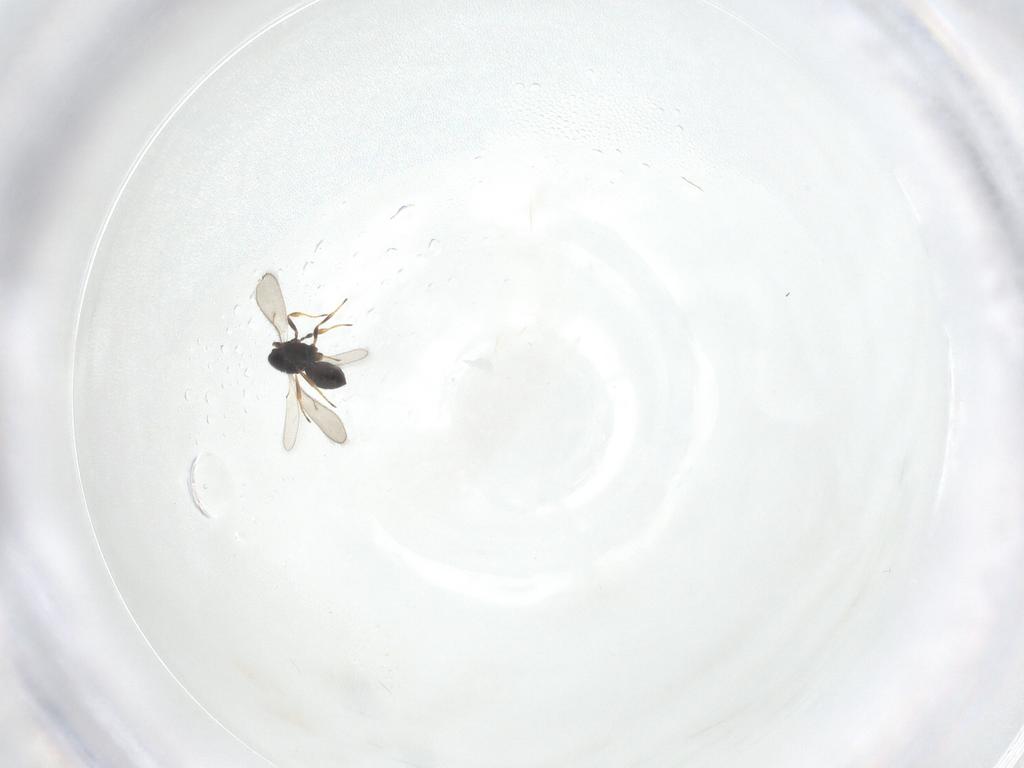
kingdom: Animalia
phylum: Arthropoda
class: Insecta
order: Hymenoptera
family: Scelionidae
